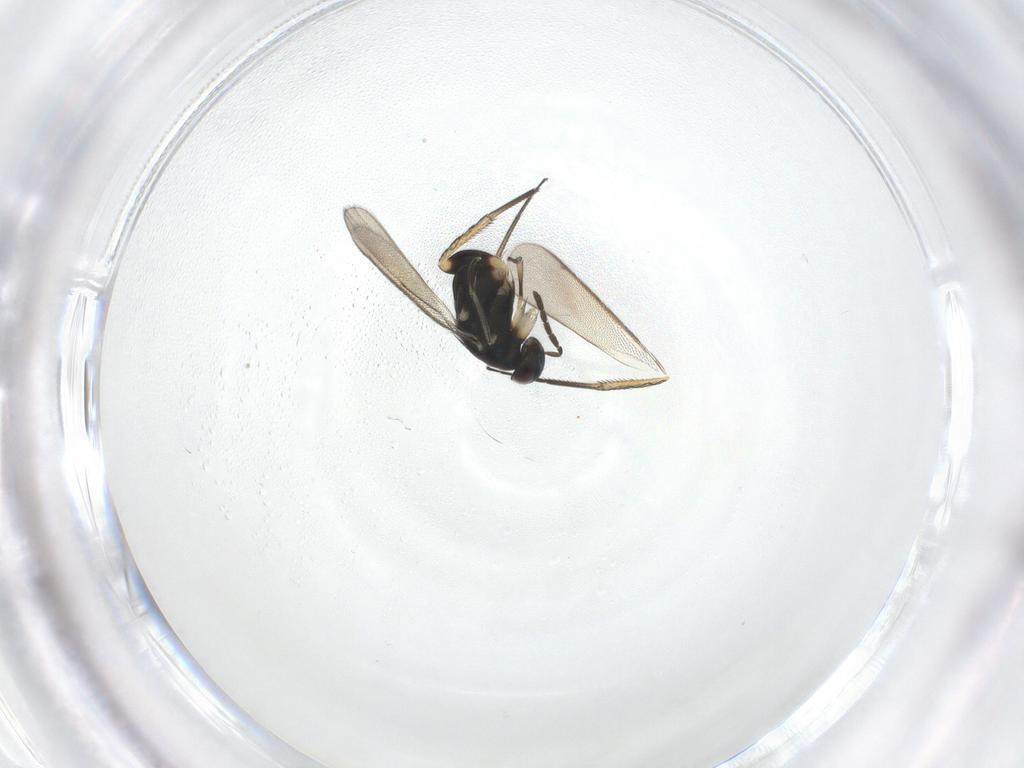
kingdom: Animalia
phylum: Arthropoda
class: Insecta
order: Hymenoptera
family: Eulophidae
